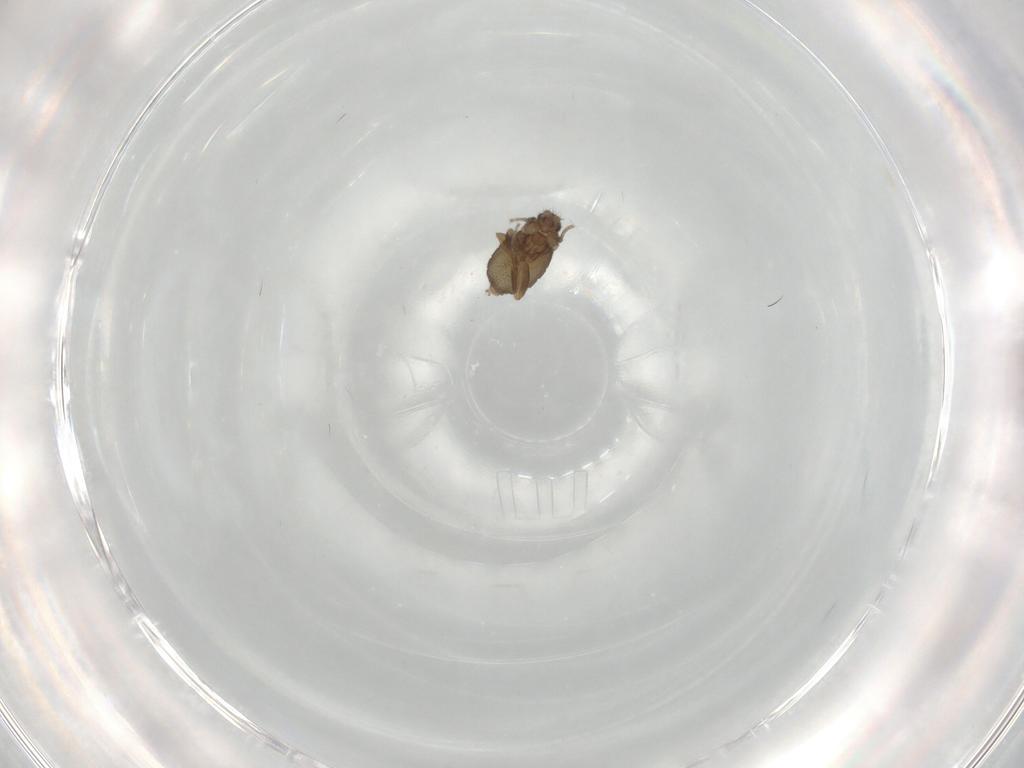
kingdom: Animalia
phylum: Arthropoda
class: Insecta
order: Diptera
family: Phoridae
